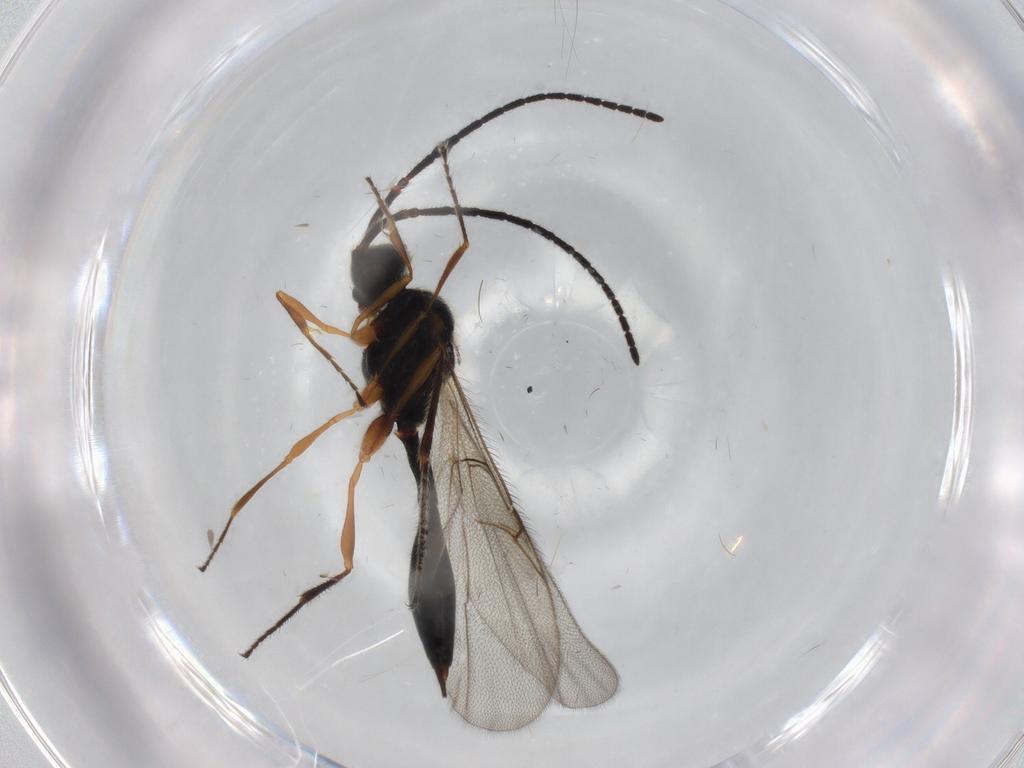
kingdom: Animalia
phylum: Arthropoda
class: Insecta
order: Hymenoptera
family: Diapriidae
